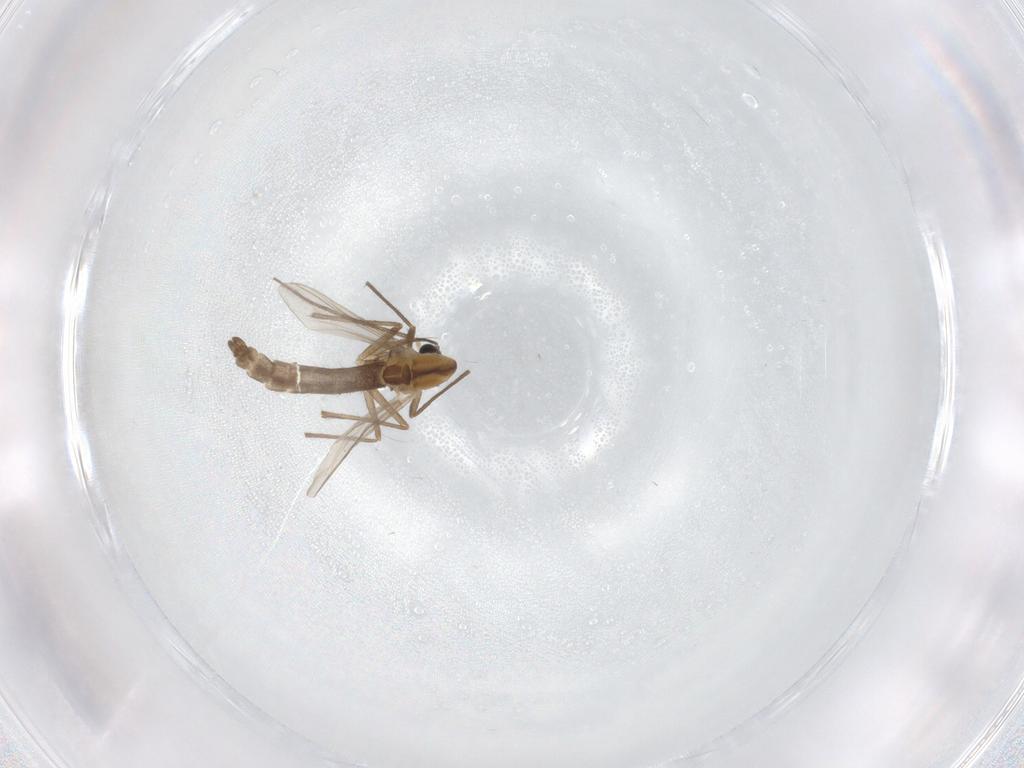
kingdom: Animalia
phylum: Arthropoda
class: Insecta
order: Diptera
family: Chironomidae
